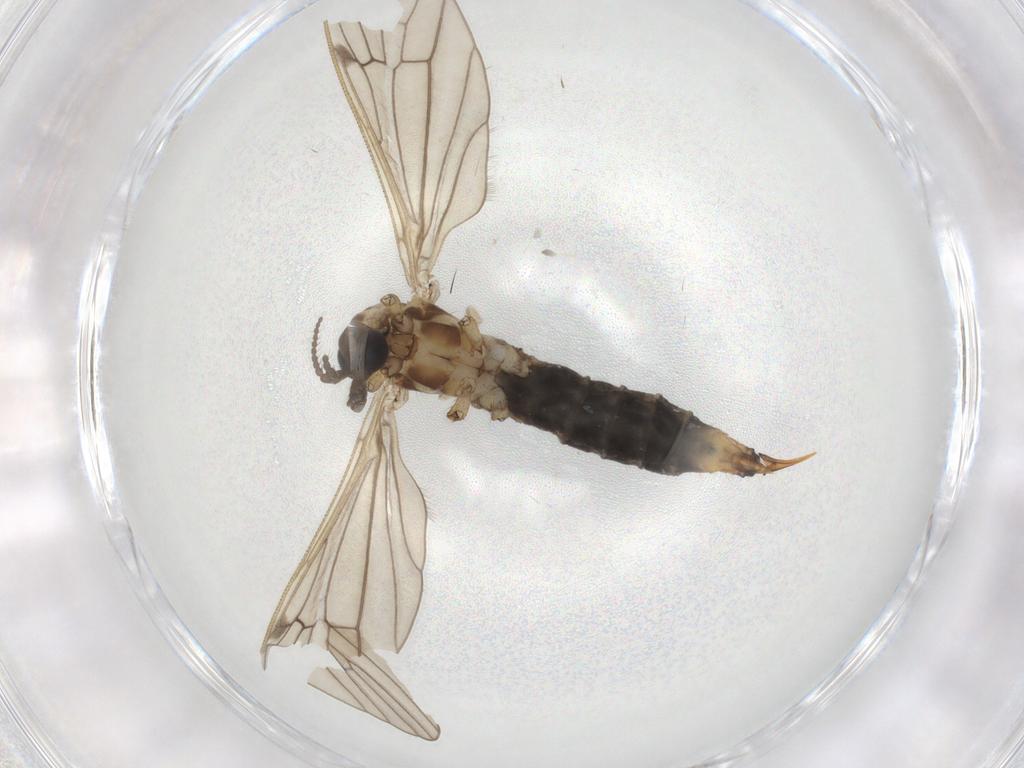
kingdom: Animalia
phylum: Arthropoda
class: Insecta
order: Diptera
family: Limoniidae
